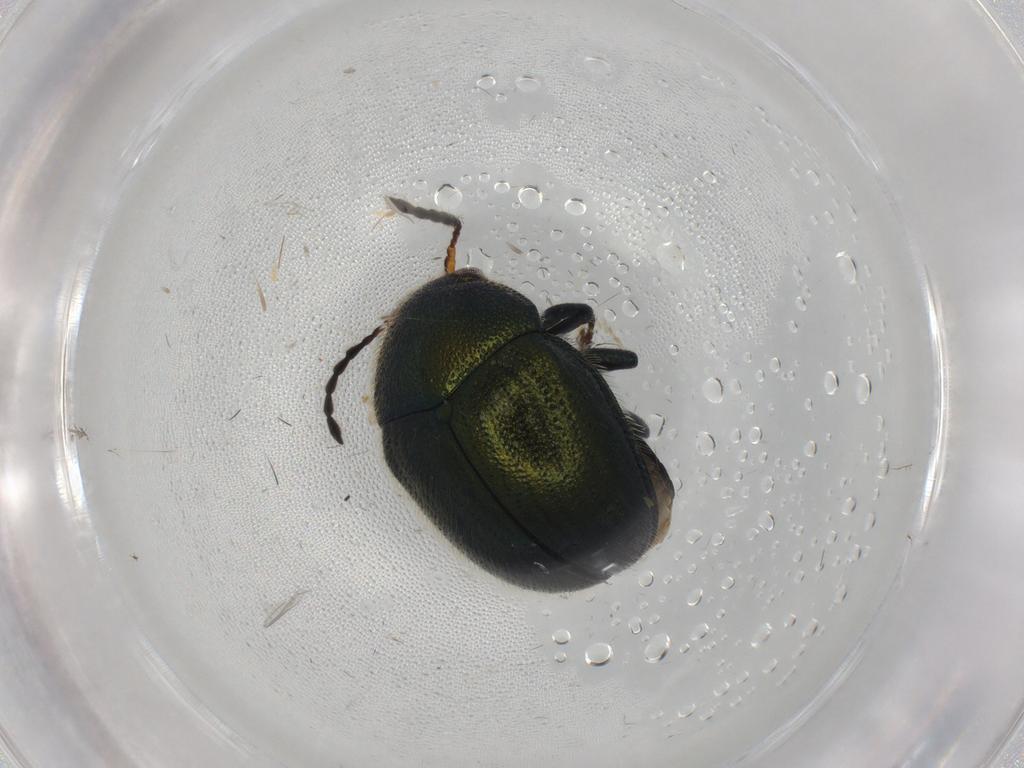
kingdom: Animalia
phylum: Arthropoda
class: Insecta
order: Coleoptera
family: Chrysomelidae
